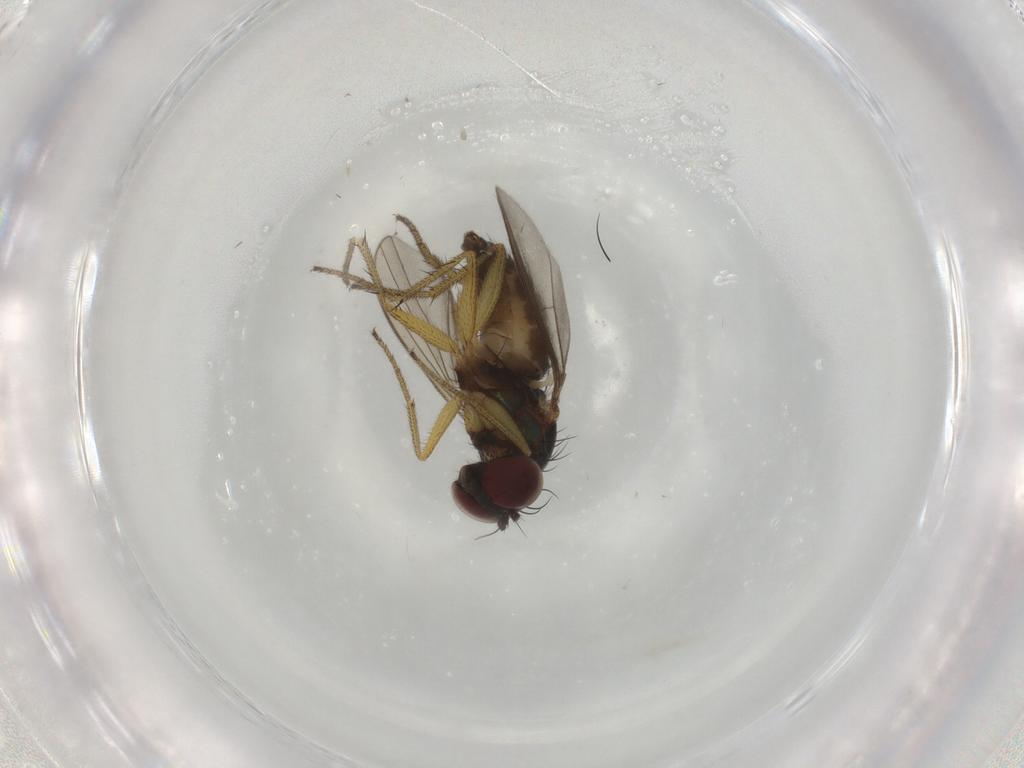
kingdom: Animalia
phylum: Arthropoda
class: Insecta
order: Diptera
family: Dolichopodidae
